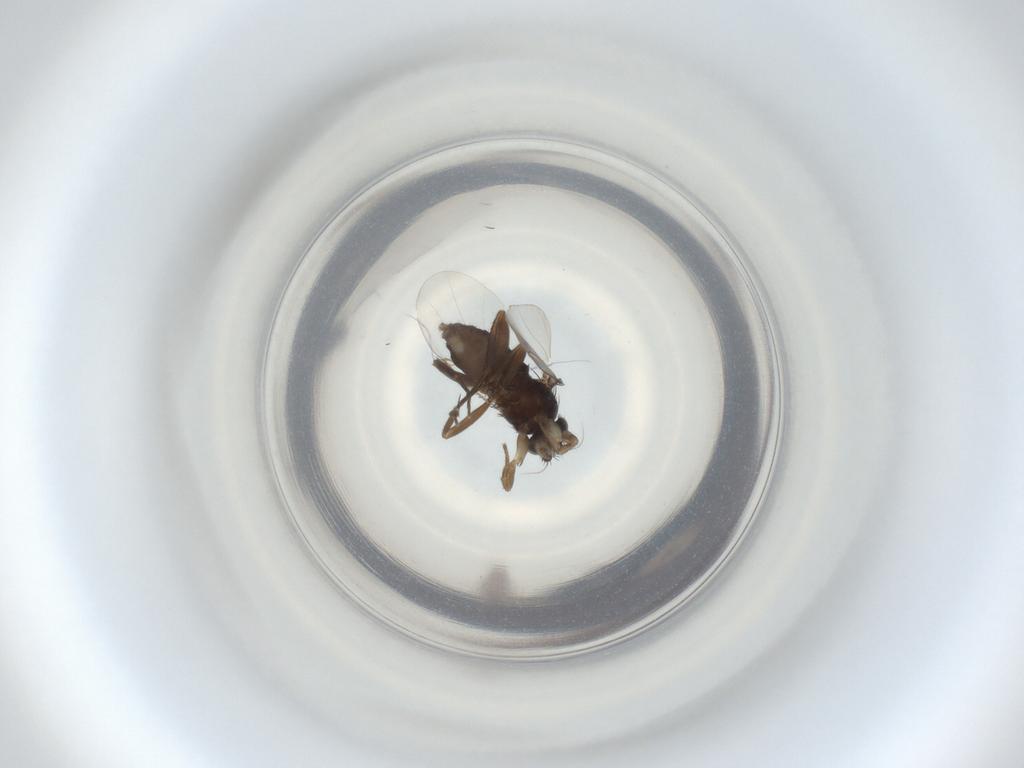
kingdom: Animalia
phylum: Arthropoda
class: Insecta
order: Diptera
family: Phoridae
